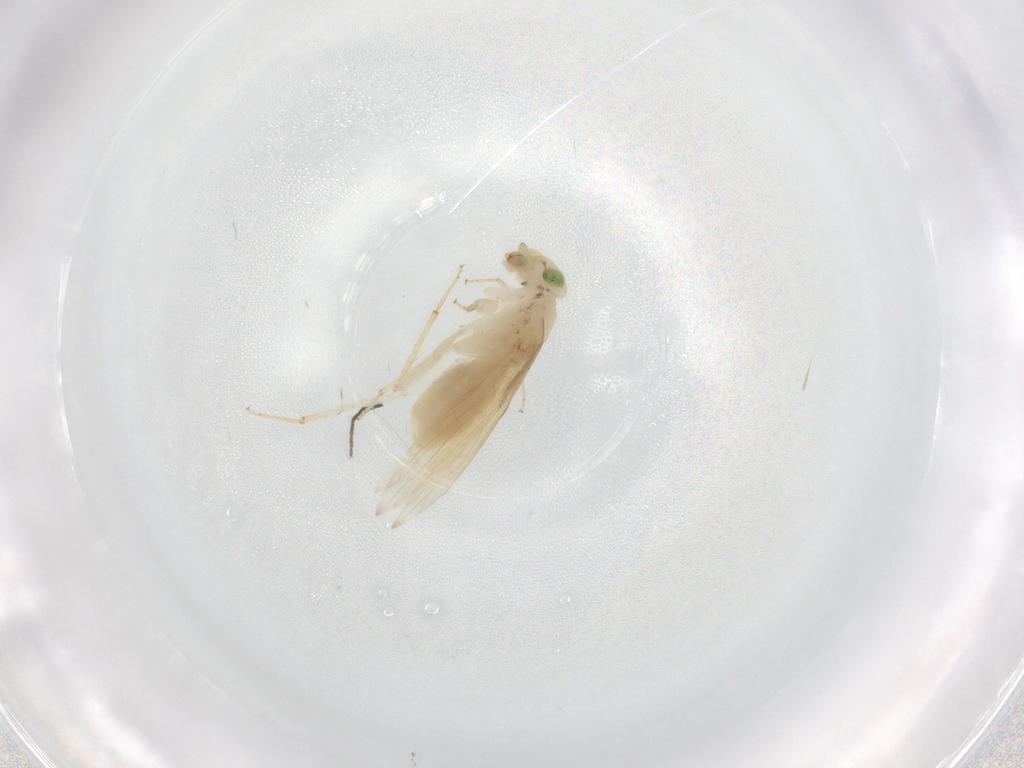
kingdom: Animalia
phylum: Arthropoda
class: Insecta
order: Psocodea
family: Lepidopsocidae
